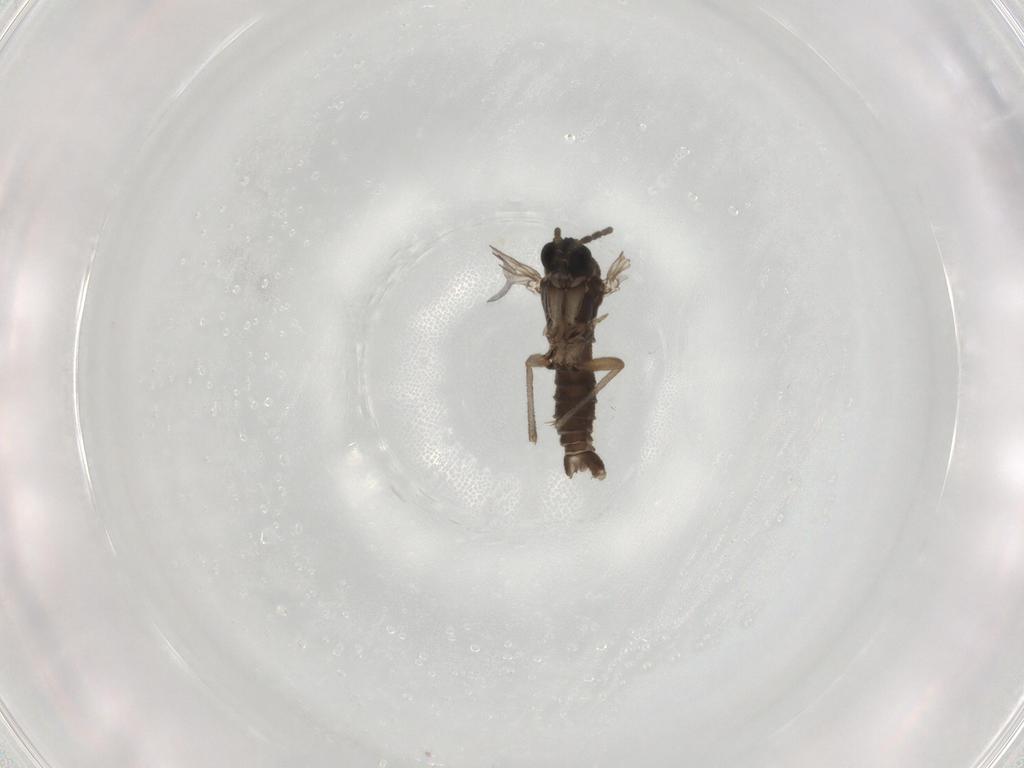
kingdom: Animalia
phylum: Arthropoda
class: Insecta
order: Diptera
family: Sciaridae
